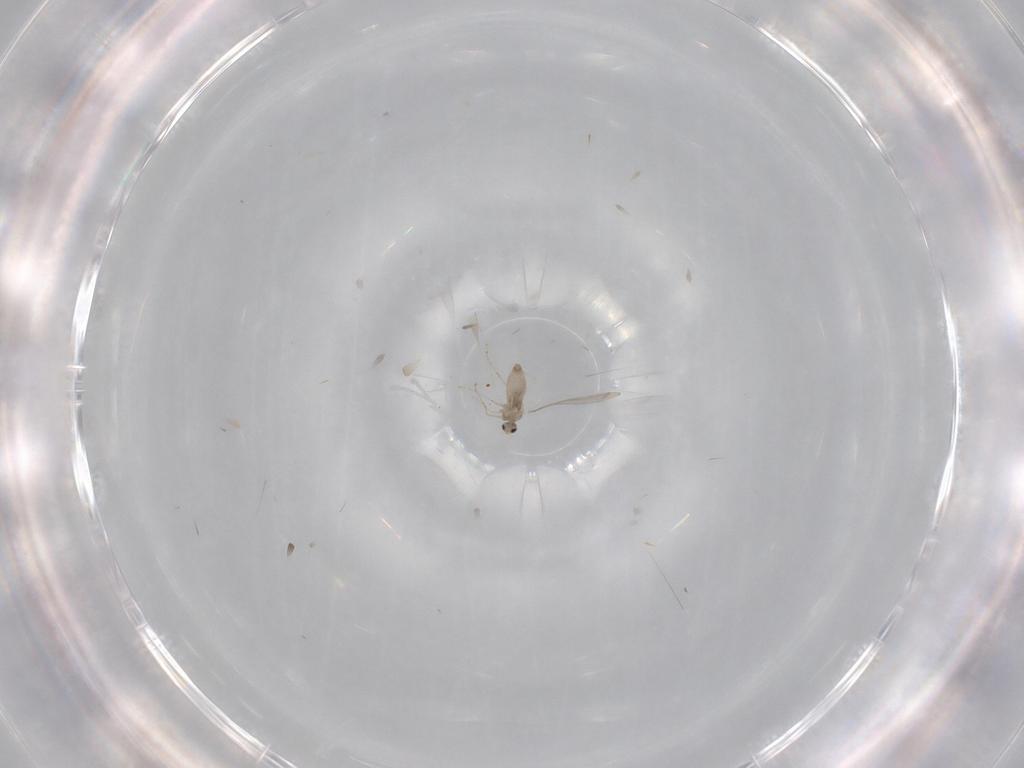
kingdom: Animalia
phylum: Arthropoda
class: Insecta
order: Diptera
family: Cecidomyiidae
